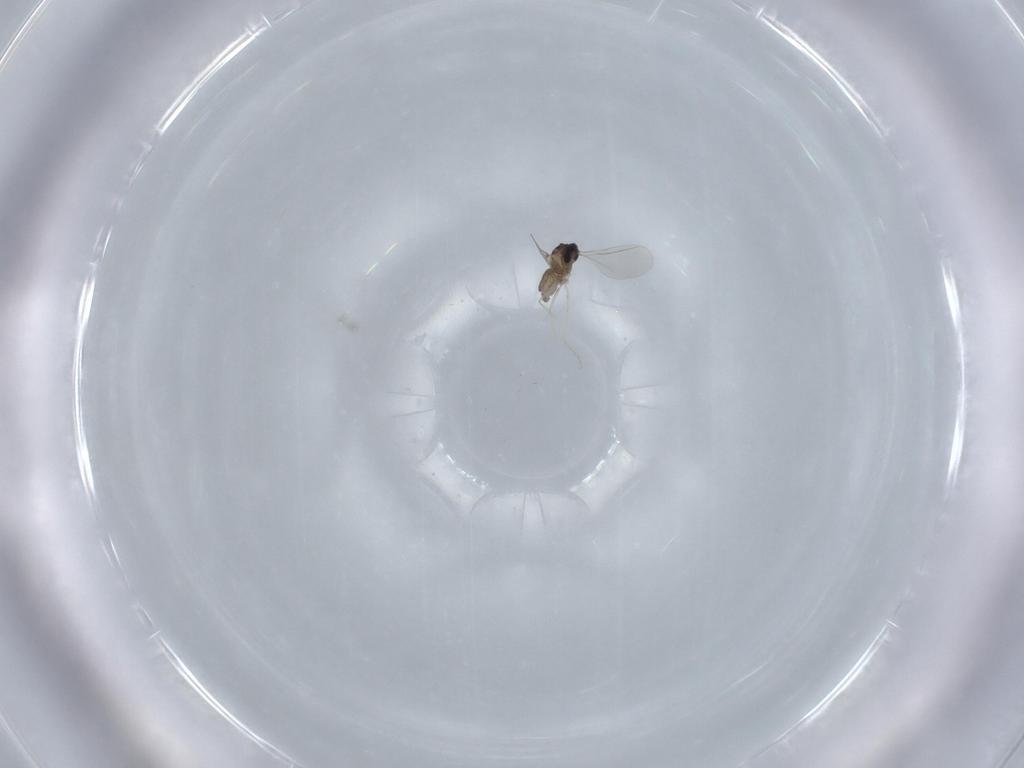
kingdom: Animalia
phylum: Arthropoda
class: Insecta
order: Diptera
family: Cecidomyiidae
